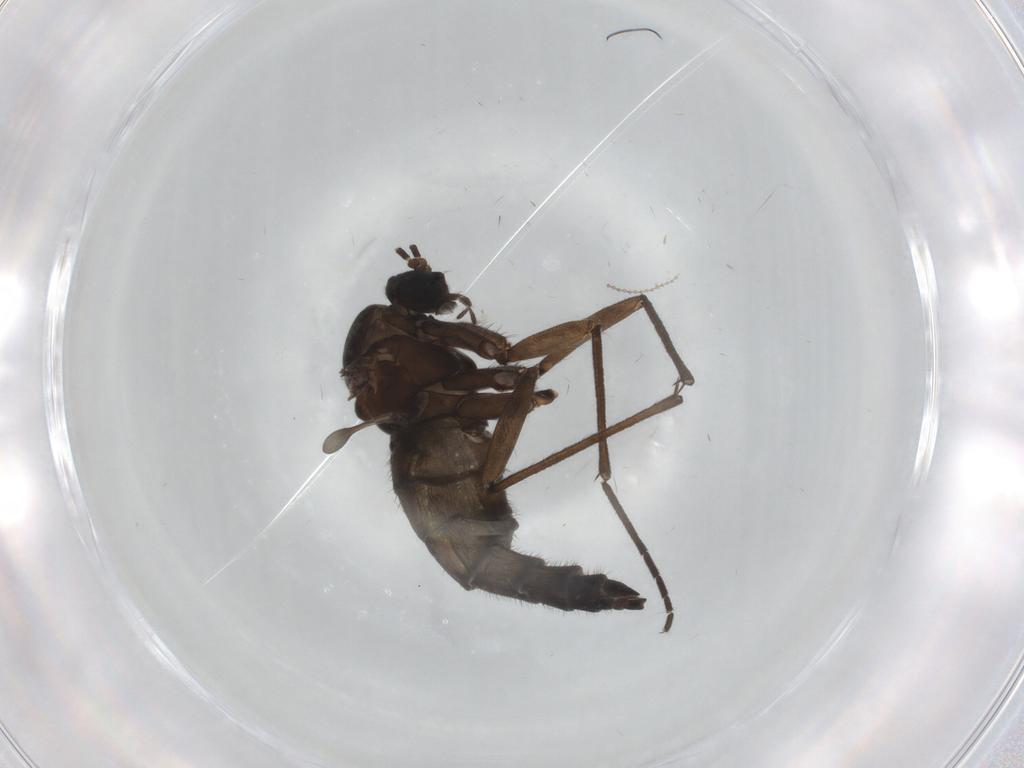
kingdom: Animalia
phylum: Arthropoda
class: Insecta
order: Diptera
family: Sciaridae
